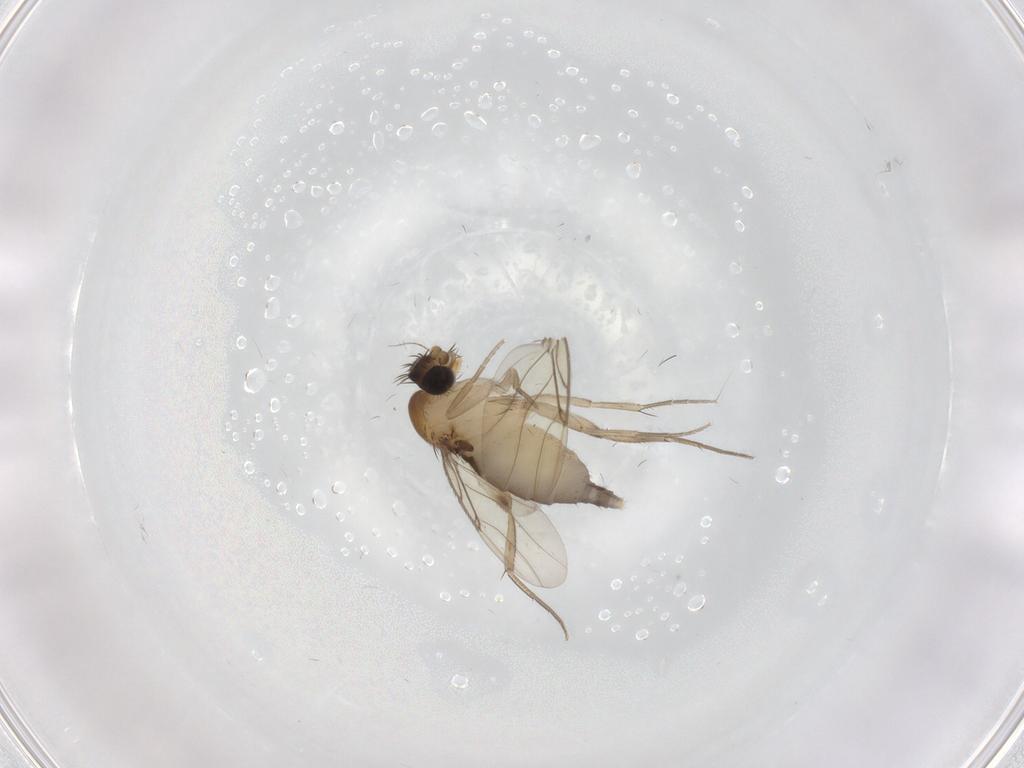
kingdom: Animalia
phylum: Arthropoda
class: Insecta
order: Diptera
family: Phoridae
